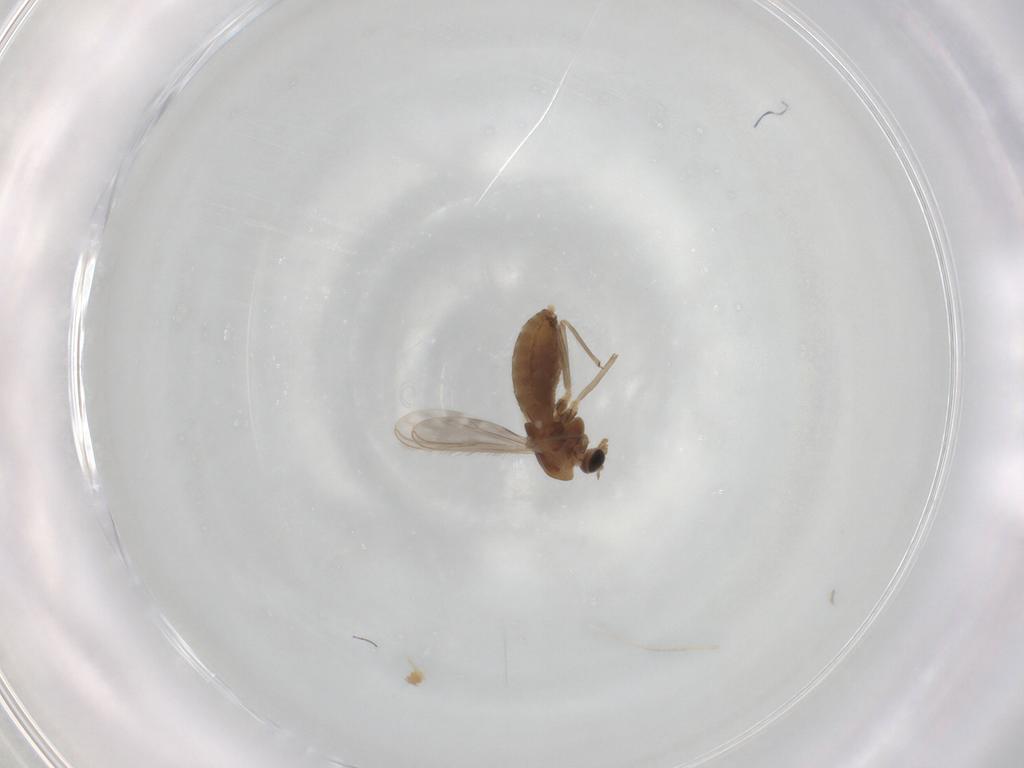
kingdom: Animalia
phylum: Arthropoda
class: Insecta
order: Diptera
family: Chironomidae
